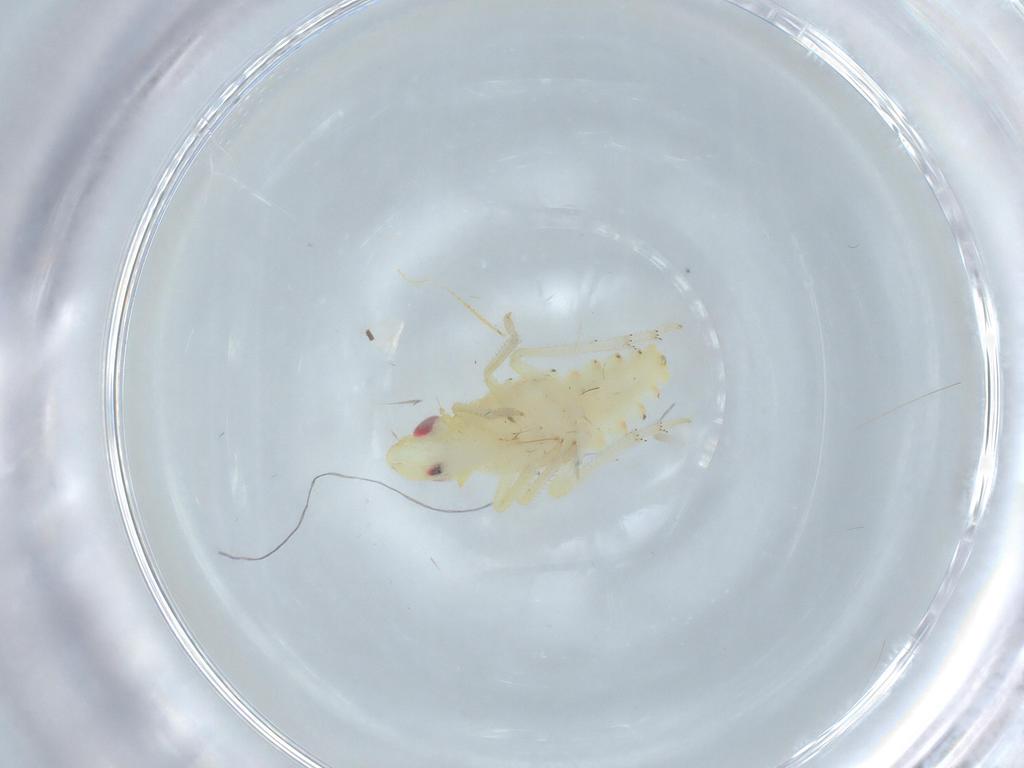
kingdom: Animalia
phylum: Arthropoda
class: Insecta
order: Hemiptera
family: Tropiduchidae
